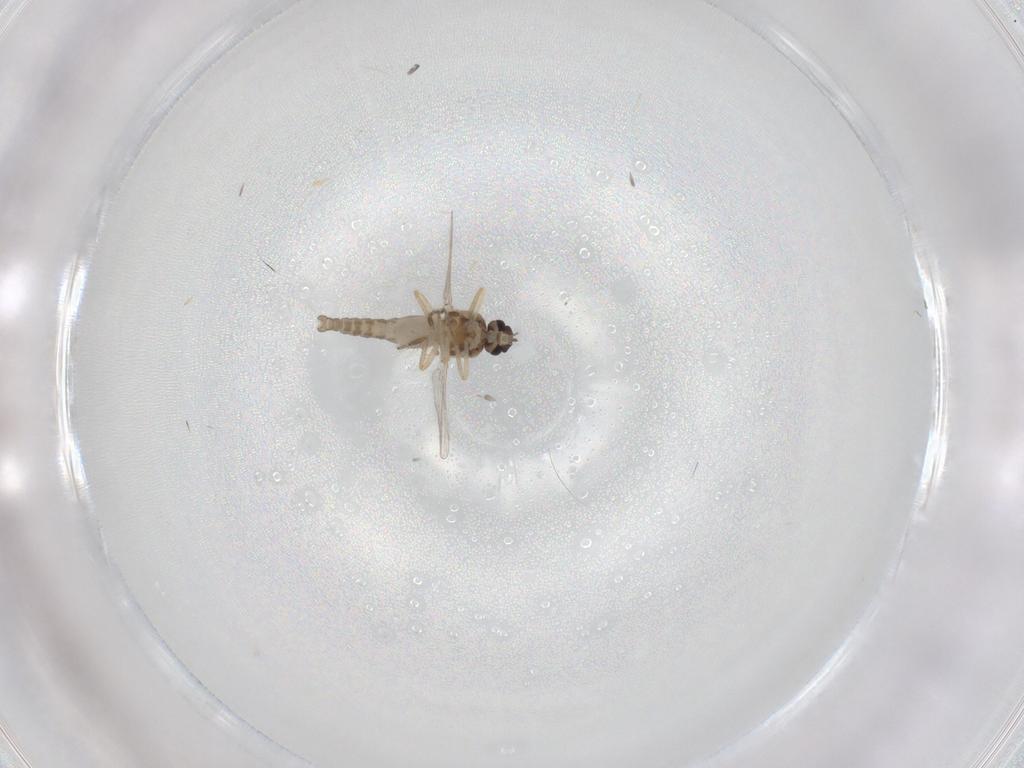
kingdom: Animalia
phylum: Arthropoda
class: Insecta
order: Diptera
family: Ceratopogonidae
